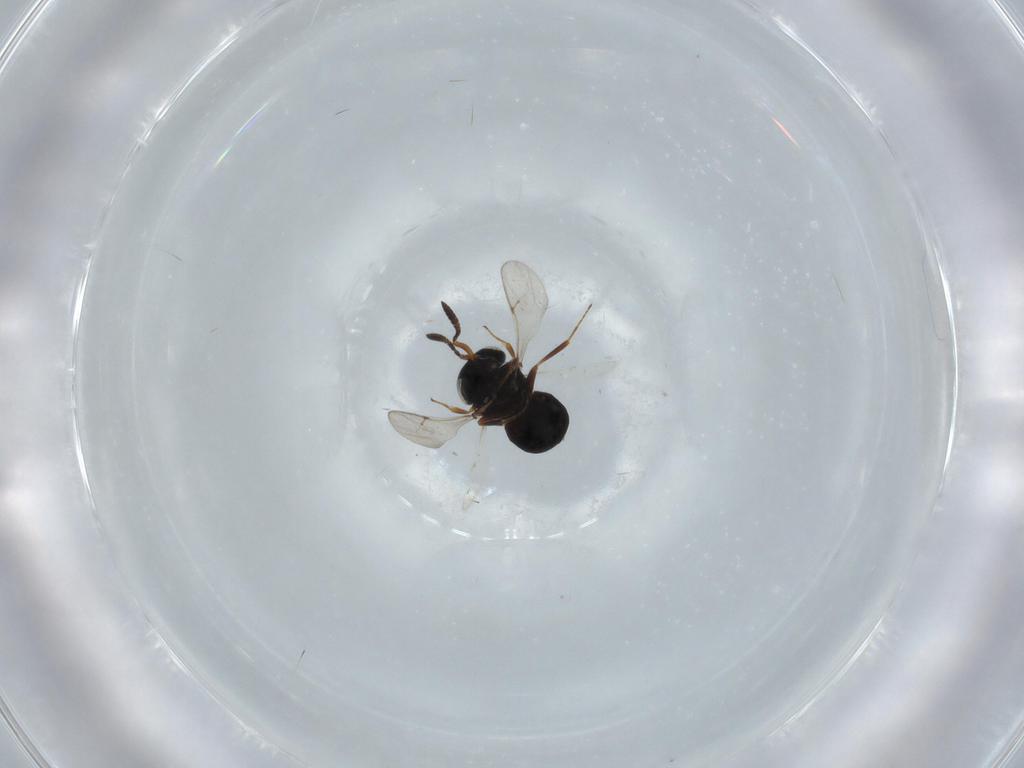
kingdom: Animalia
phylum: Arthropoda
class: Insecta
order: Hymenoptera
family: Scelionidae
